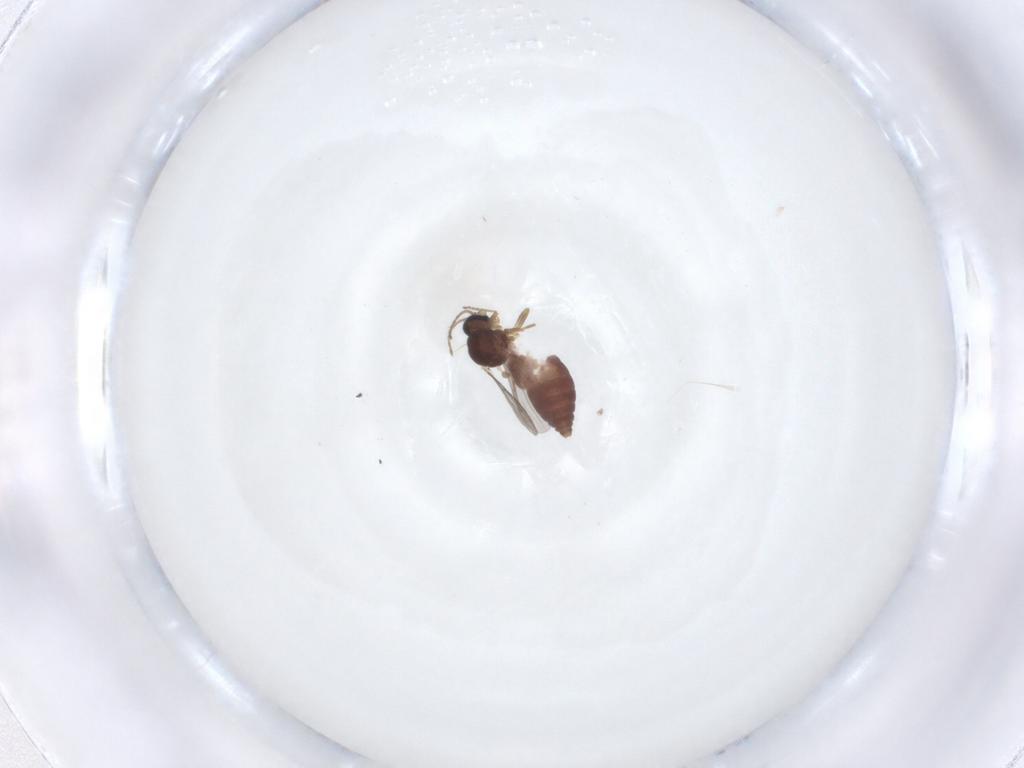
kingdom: Animalia
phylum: Arthropoda
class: Insecta
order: Diptera
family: Ceratopogonidae
